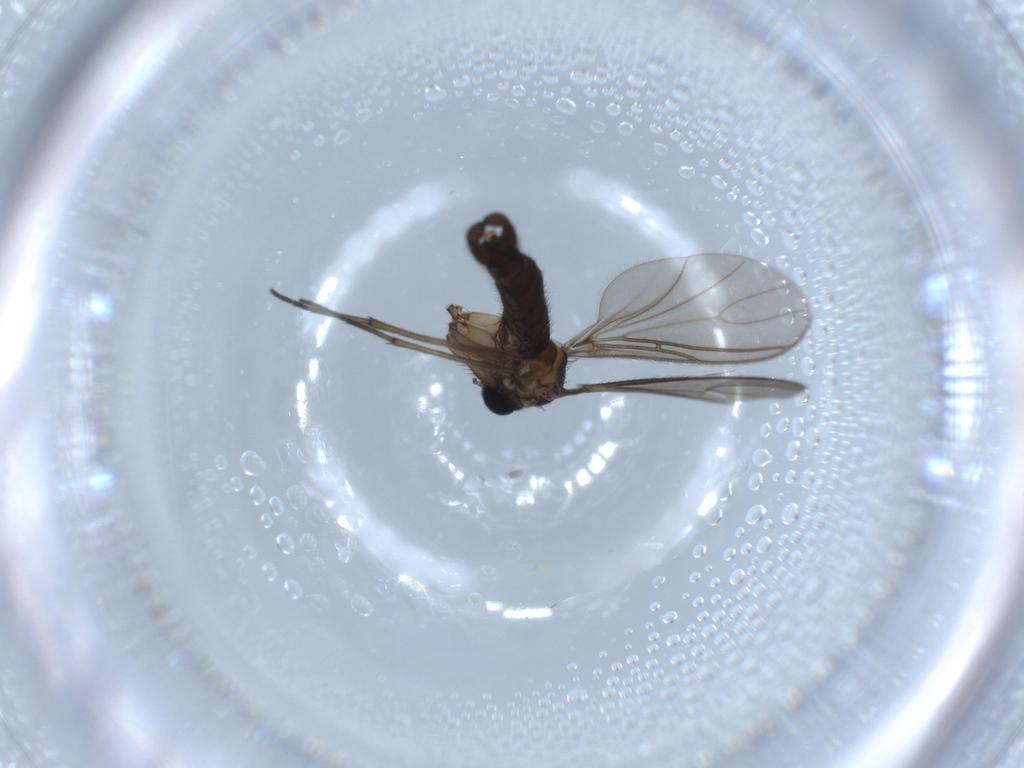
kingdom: Animalia
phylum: Arthropoda
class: Insecta
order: Diptera
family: Sciaridae
